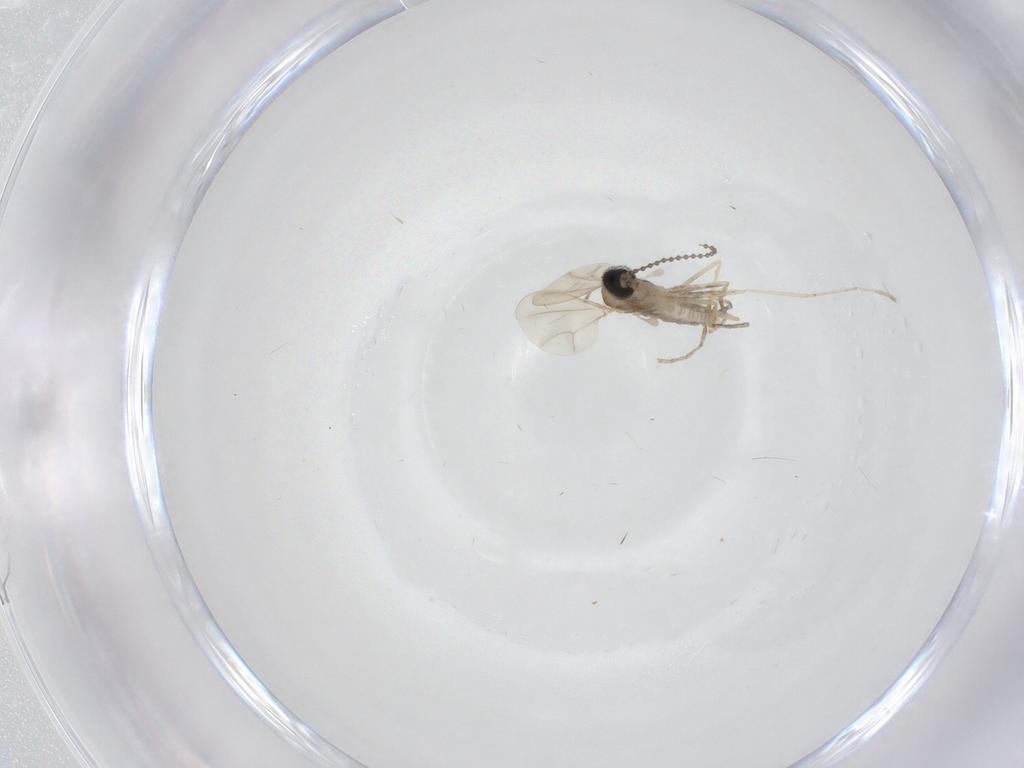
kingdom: Animalia
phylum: Arthropoda
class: Insecta
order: Diptera
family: Cecidomyiidae
